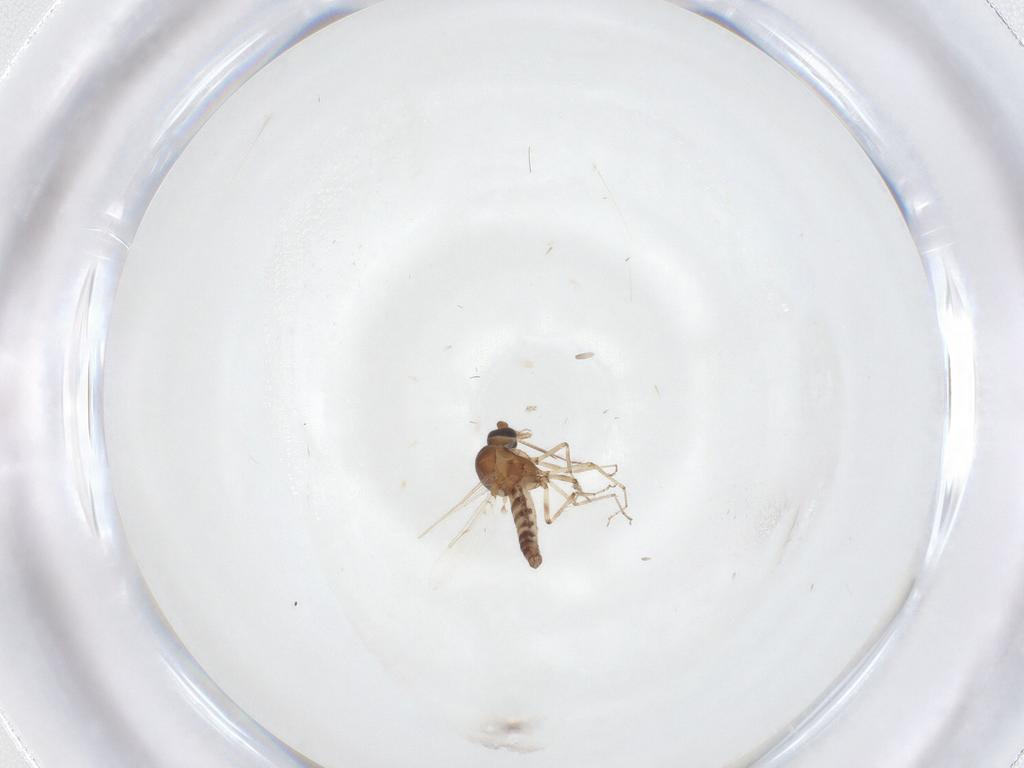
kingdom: Animalia
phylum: Arthropoda
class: Insecta
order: Diptera
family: Ceratopogonidae
